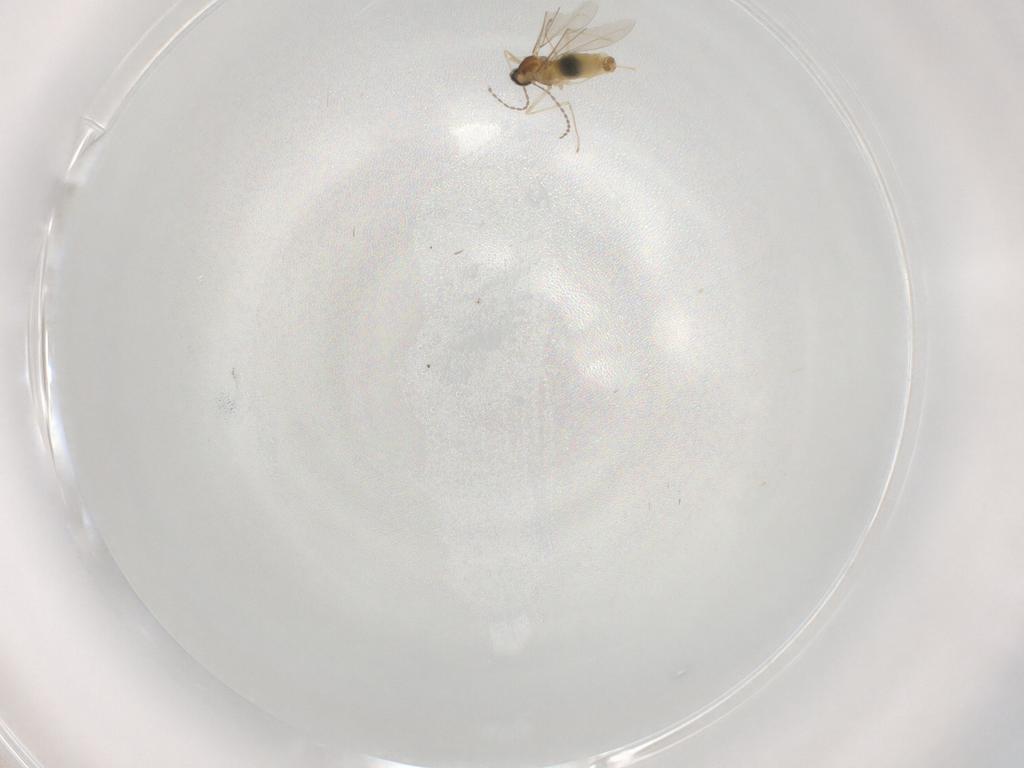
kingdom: Animalia
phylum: Arthropoda
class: Insecta
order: Diptera
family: Cecidomyiidae
